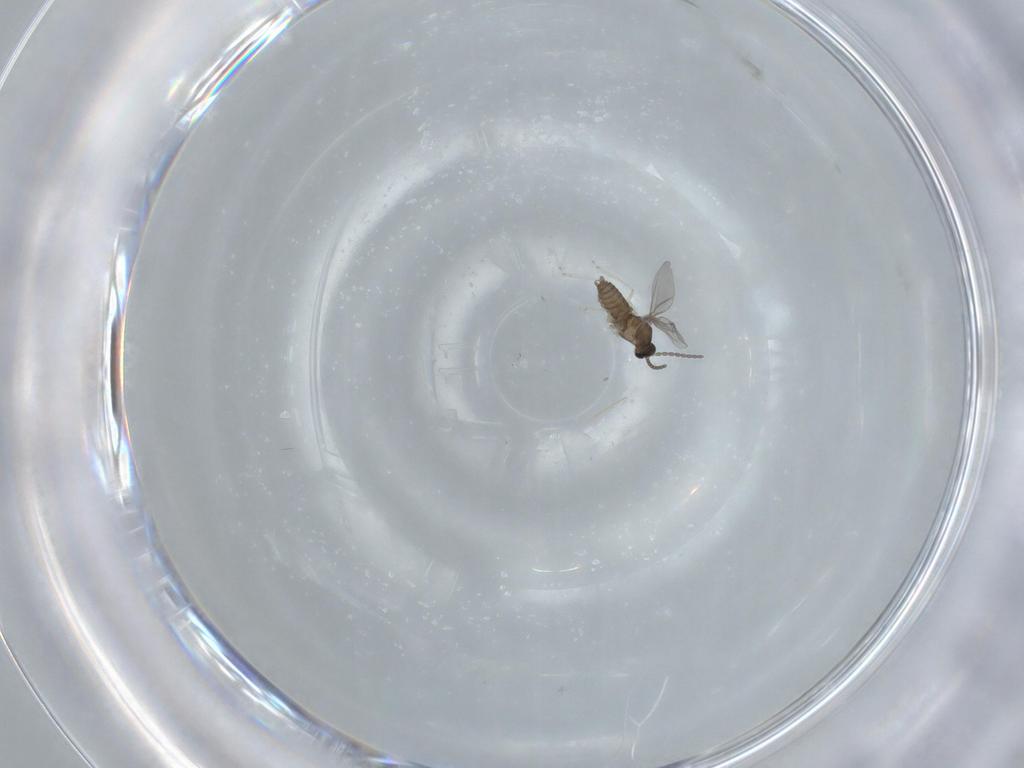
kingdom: Animalia
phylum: Arthropoda
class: Insecta
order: Diptera
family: Cecidomyiidae
